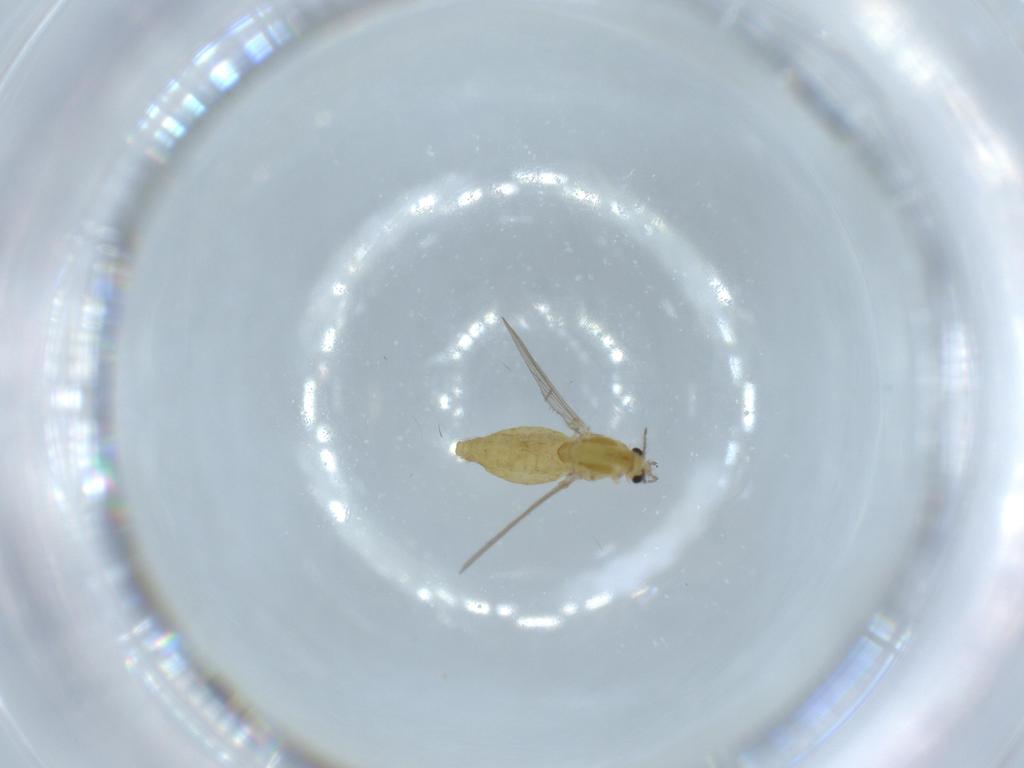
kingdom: Animalia
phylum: Arthropoda
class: Insecta
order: Diptera
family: Chironomidae
